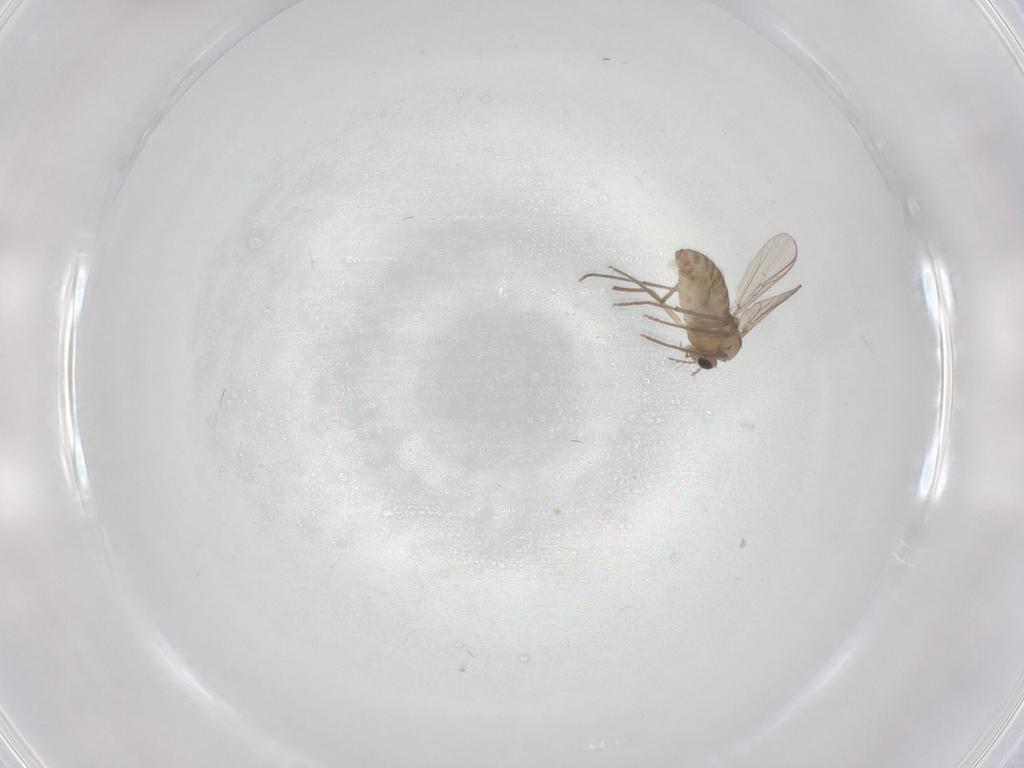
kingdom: Animalia
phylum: Arthropoda
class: Insecta
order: Diptera
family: Chironomidae
